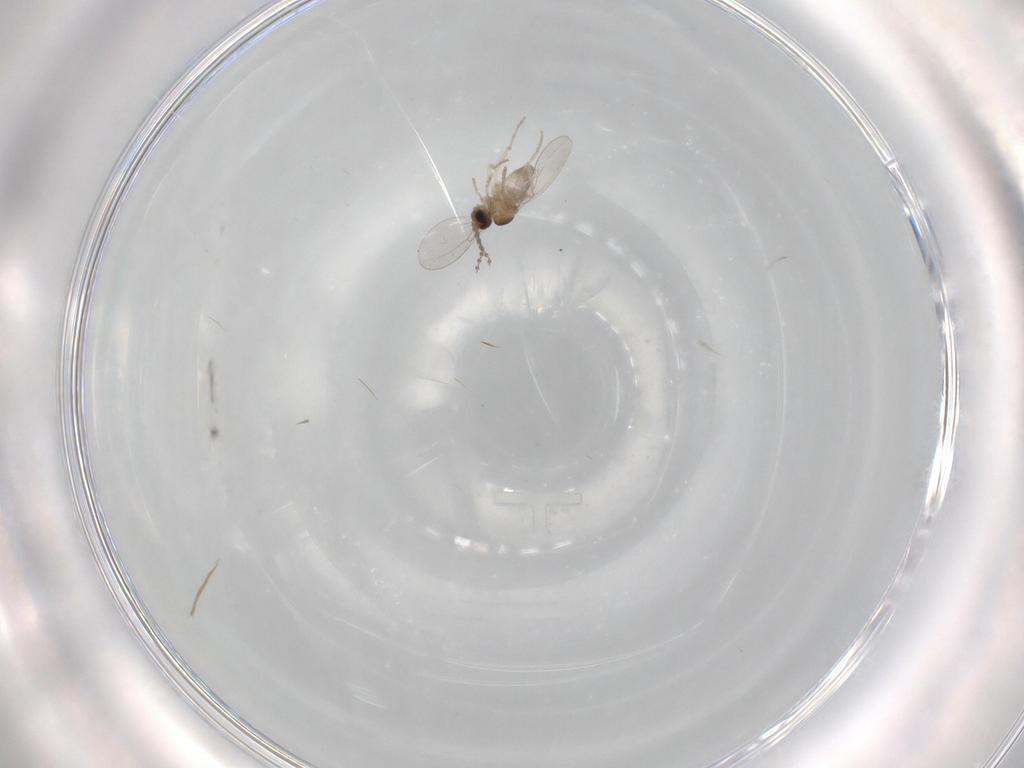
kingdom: Animalia
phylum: Arthropoda
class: Insecta
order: Diptera
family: Cecidomyiidae
